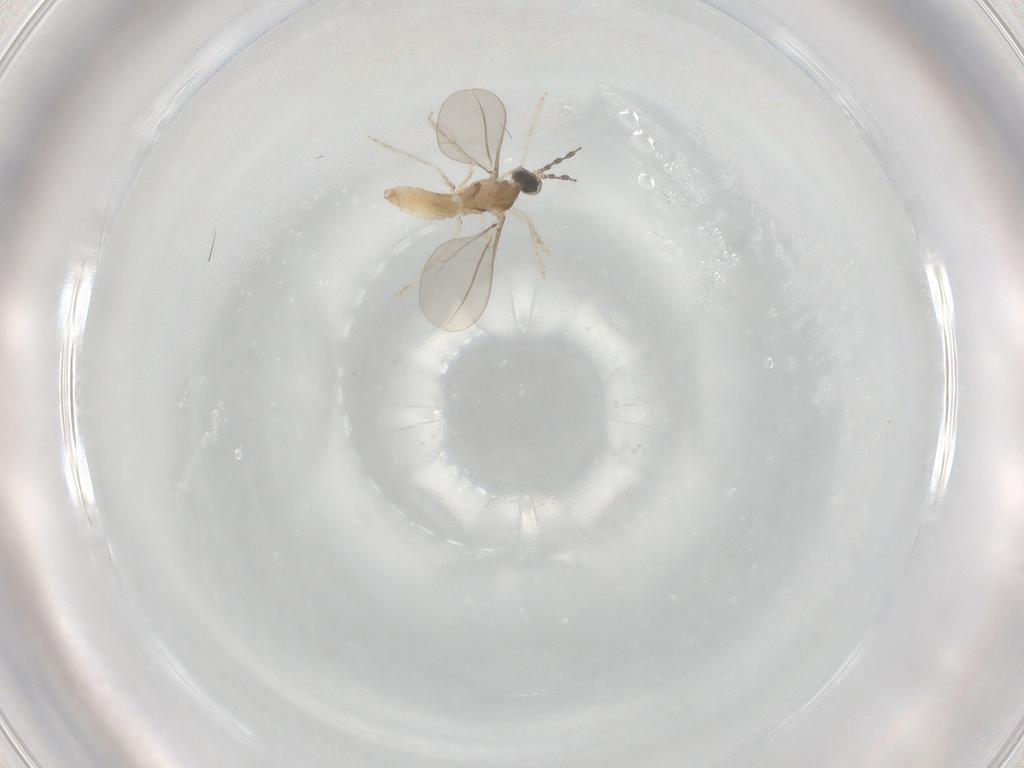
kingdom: Animalia
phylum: Arthropoda
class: Insecta
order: Diptera
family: Cecidomyiidae
